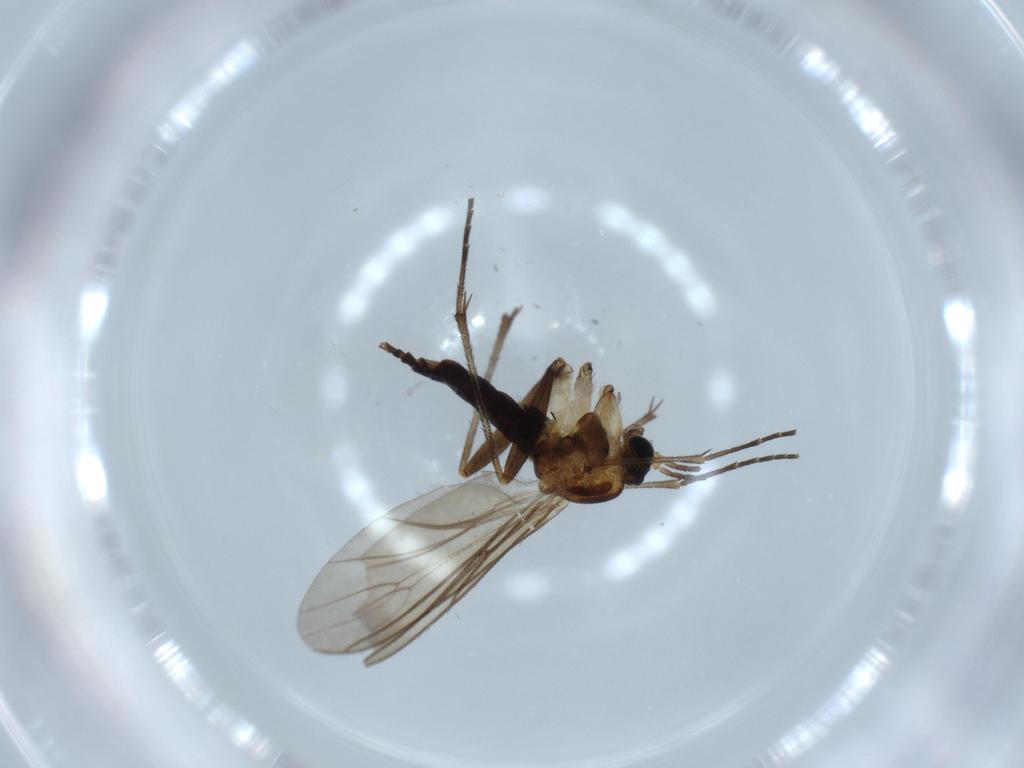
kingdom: Animalia
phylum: Arthropoda
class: Insecta
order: Diptera
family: Sciaridae
